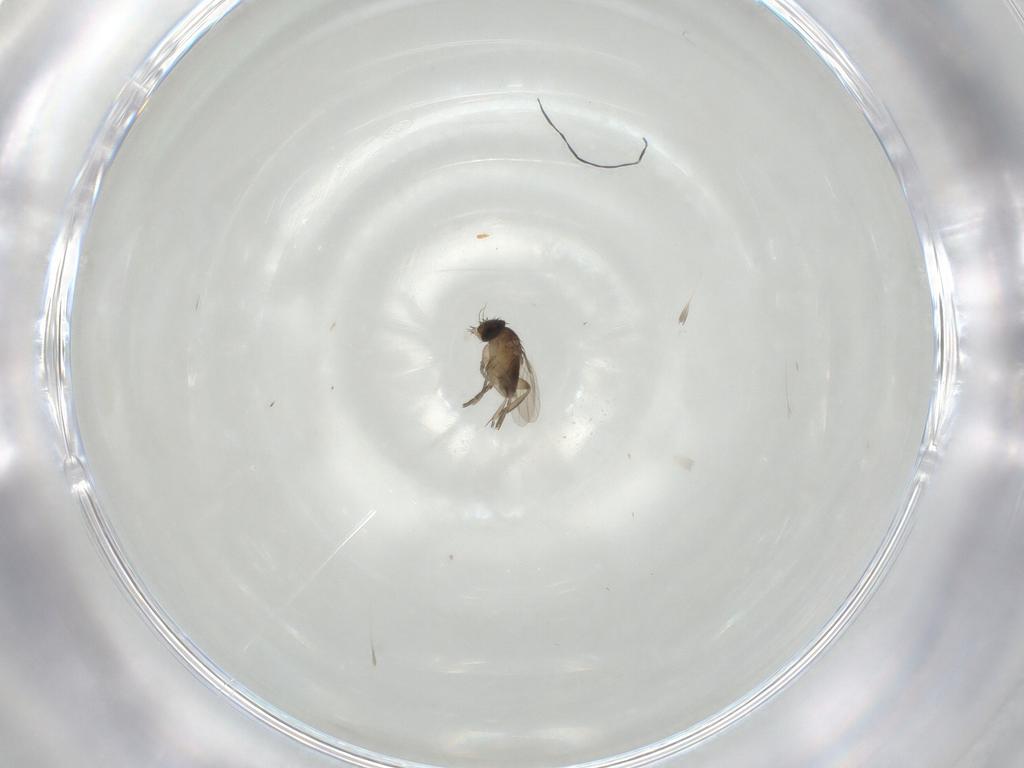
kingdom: Animalia
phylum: Arthropoda
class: Insecta
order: Diptera
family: Phoridae
